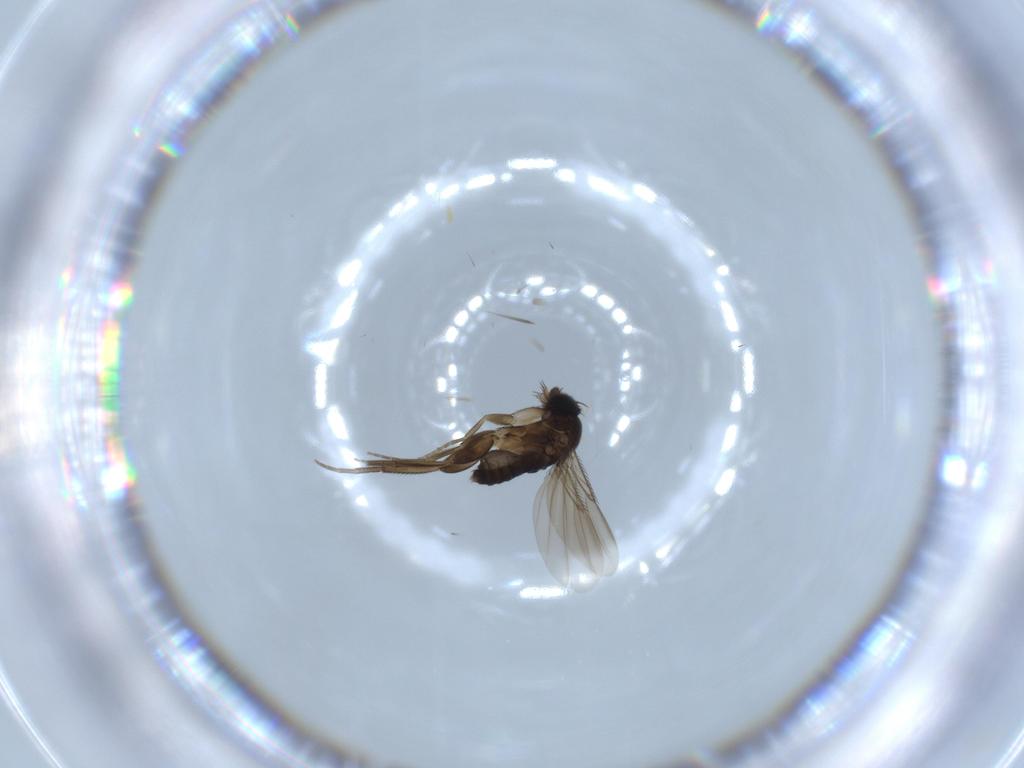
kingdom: Animalia
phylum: Arthropoda
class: Insecta
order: Diptera
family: Phoridae
